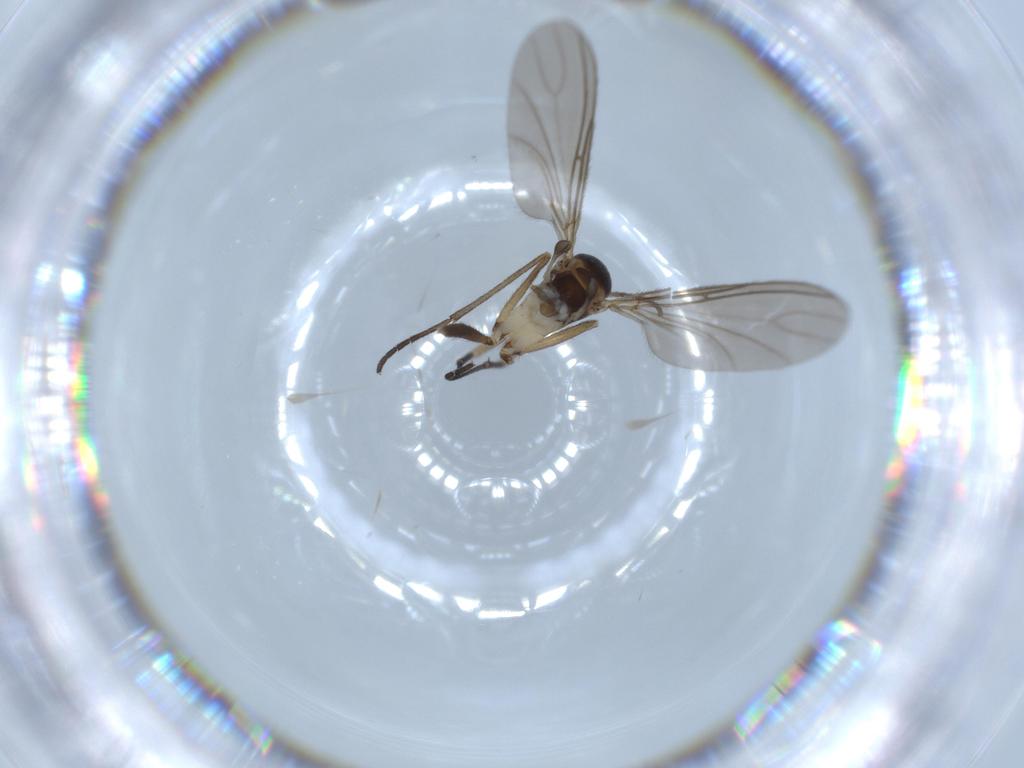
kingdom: Animalia
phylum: Arthropoda
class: Insecta
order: Diptera
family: Sciaridae
